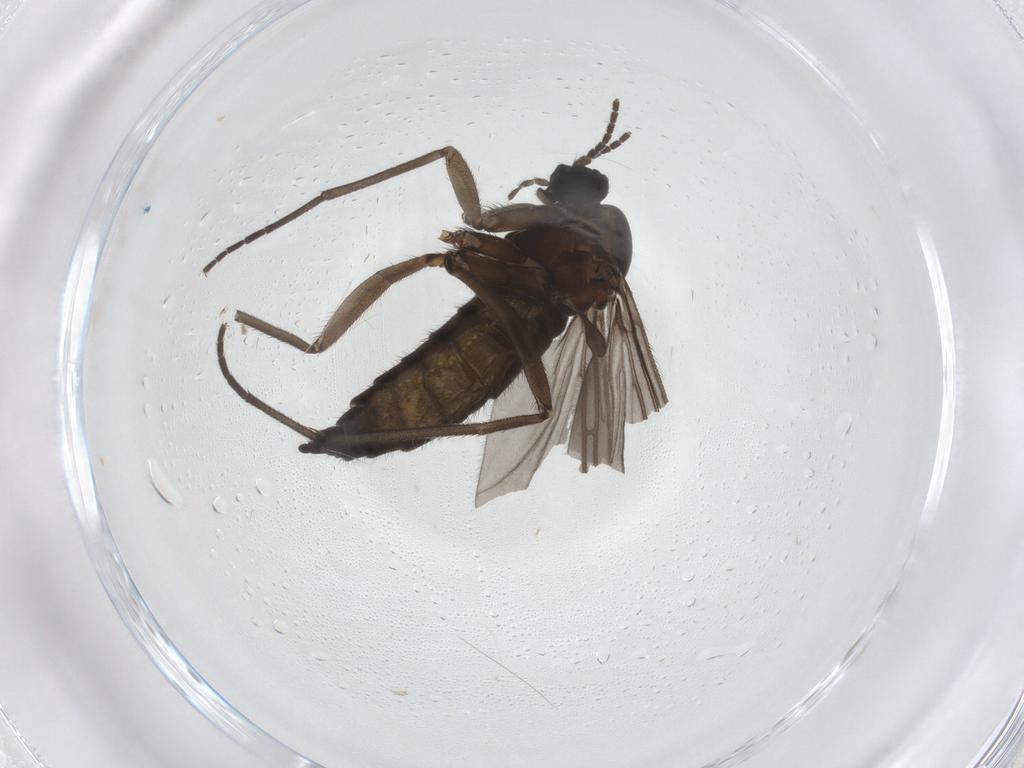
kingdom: Animalia
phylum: Arthropoda
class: Insecta
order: Diptera
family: Sciaridae
